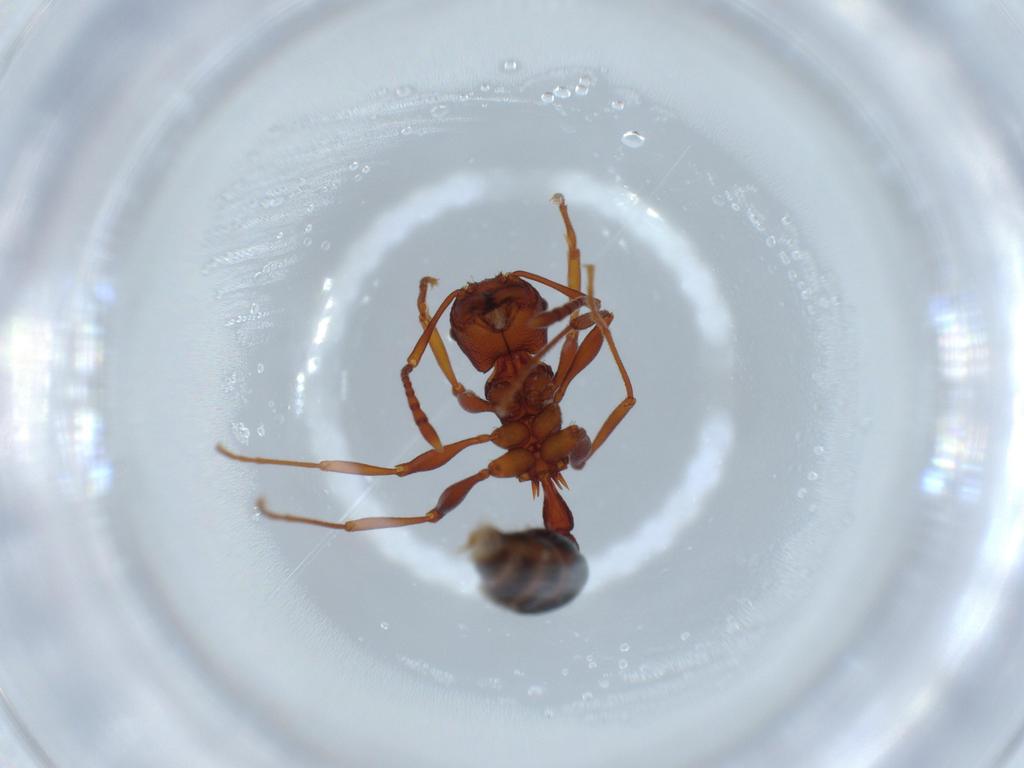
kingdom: Animalia
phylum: Arthropoda
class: Insecta
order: Hymenoptera
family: Formicidae
